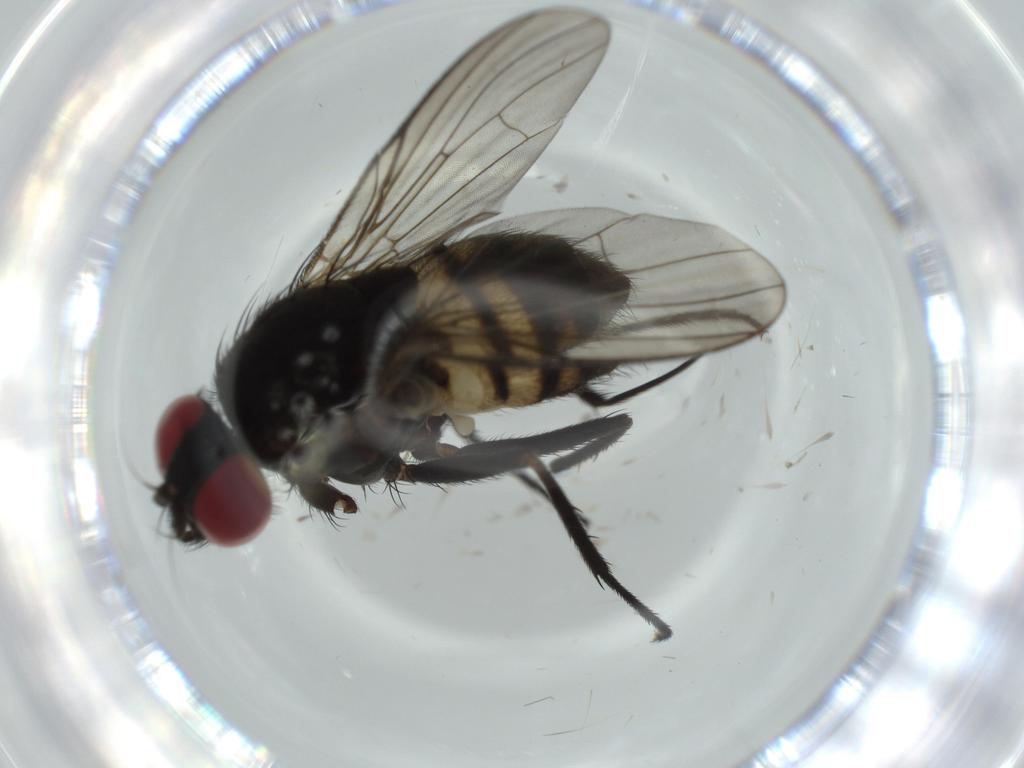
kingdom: Animalia
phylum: Arthropoda
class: Insecta
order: Diptera
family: Muscidae
